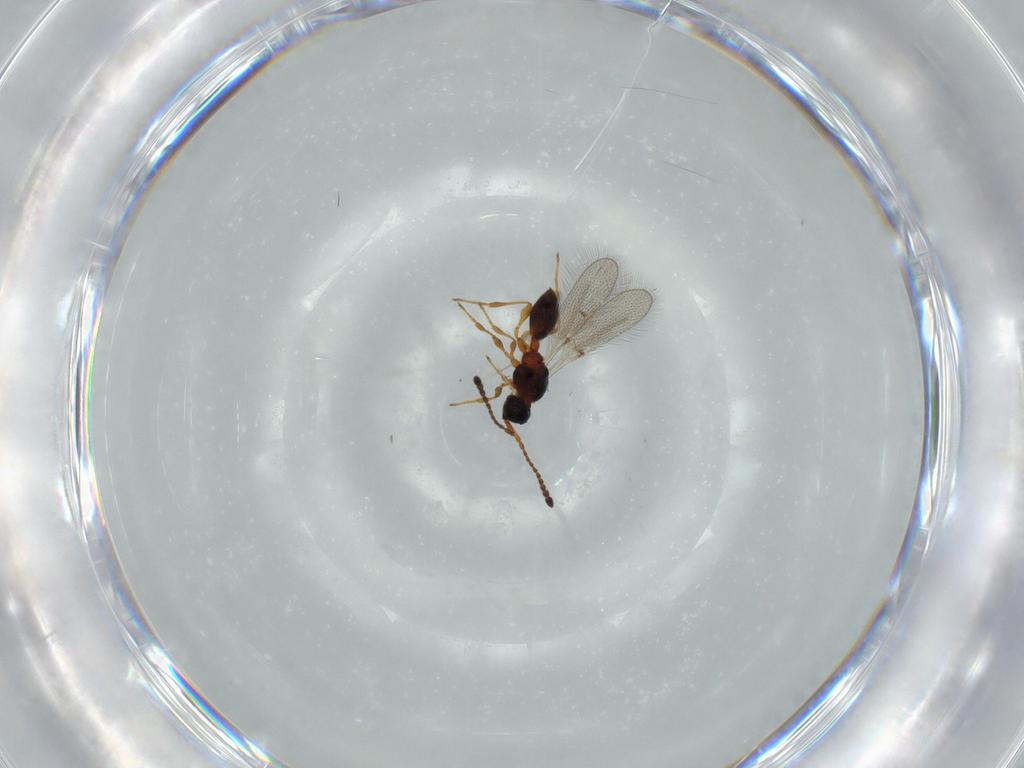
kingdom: Animalia
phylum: Arthropoda
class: Insecta
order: Hymenoptera
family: Diapriidae
